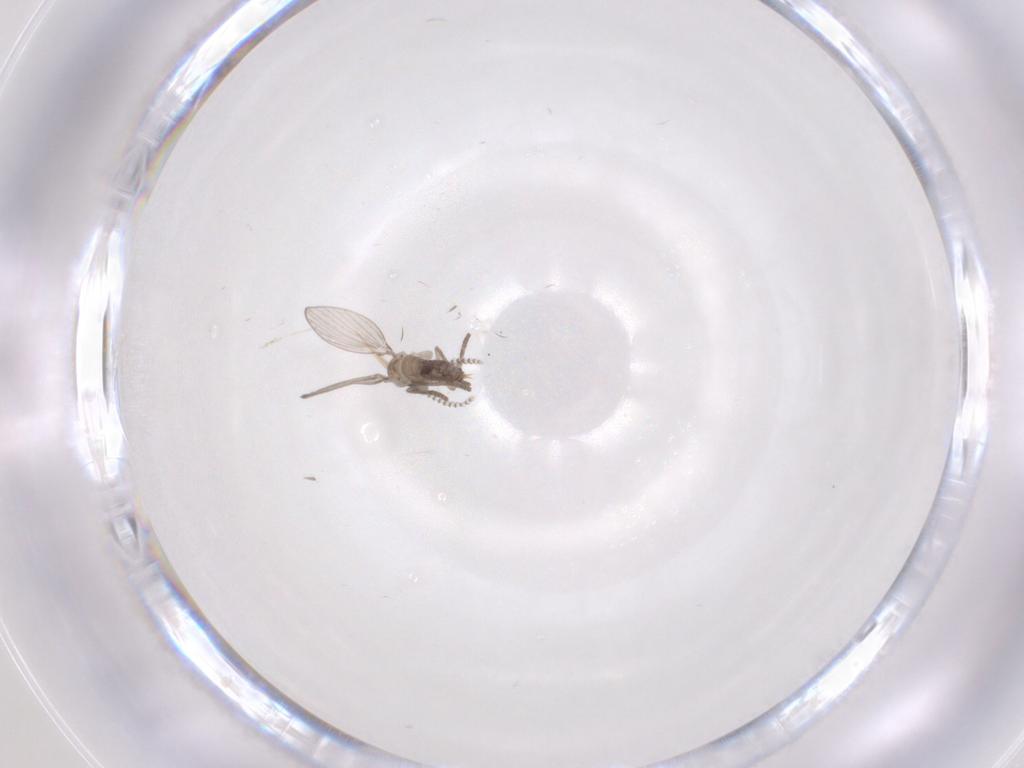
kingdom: Animalia
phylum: Arthropoda
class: Insecta
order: Diptera
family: Psychodidae
